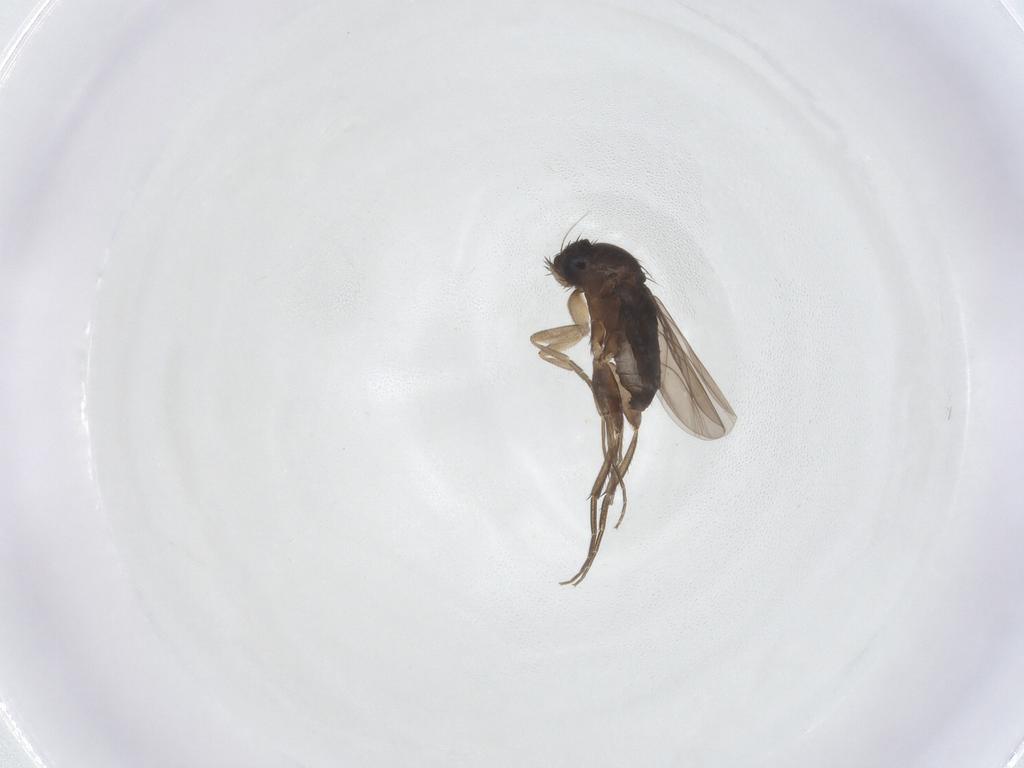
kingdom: Animalia
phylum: Arthropoda
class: Insecta
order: Diptera
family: Phoridae
